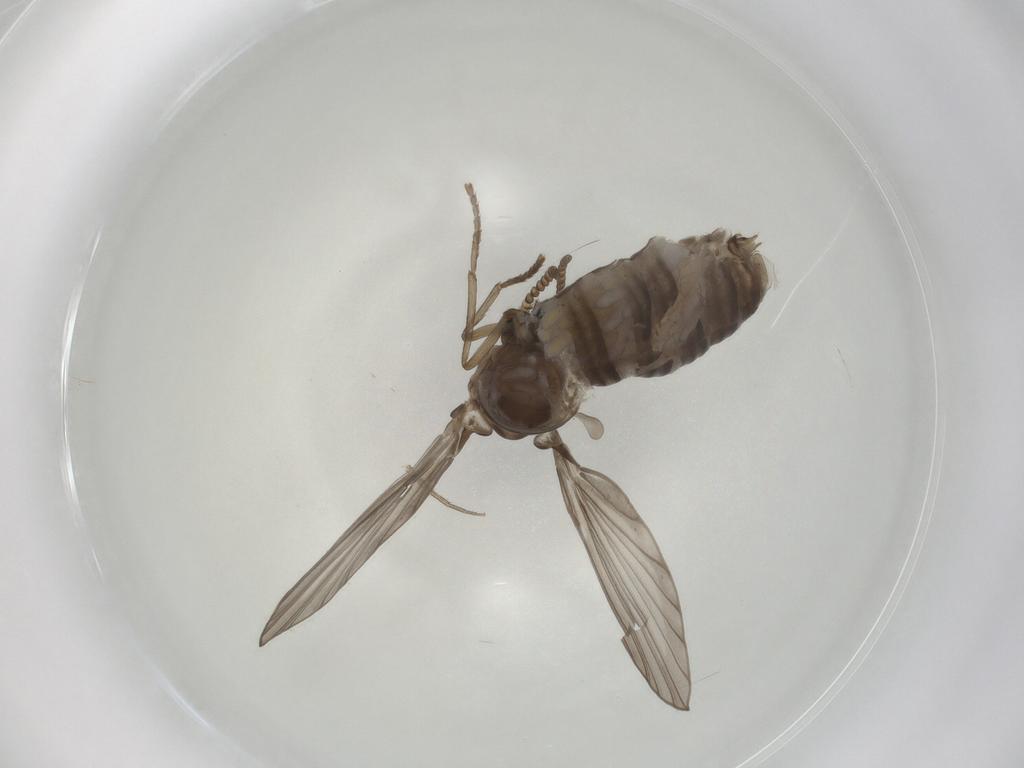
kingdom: Animalia
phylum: Arthropoda
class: Insecta
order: Diptera
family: Psychodidae
